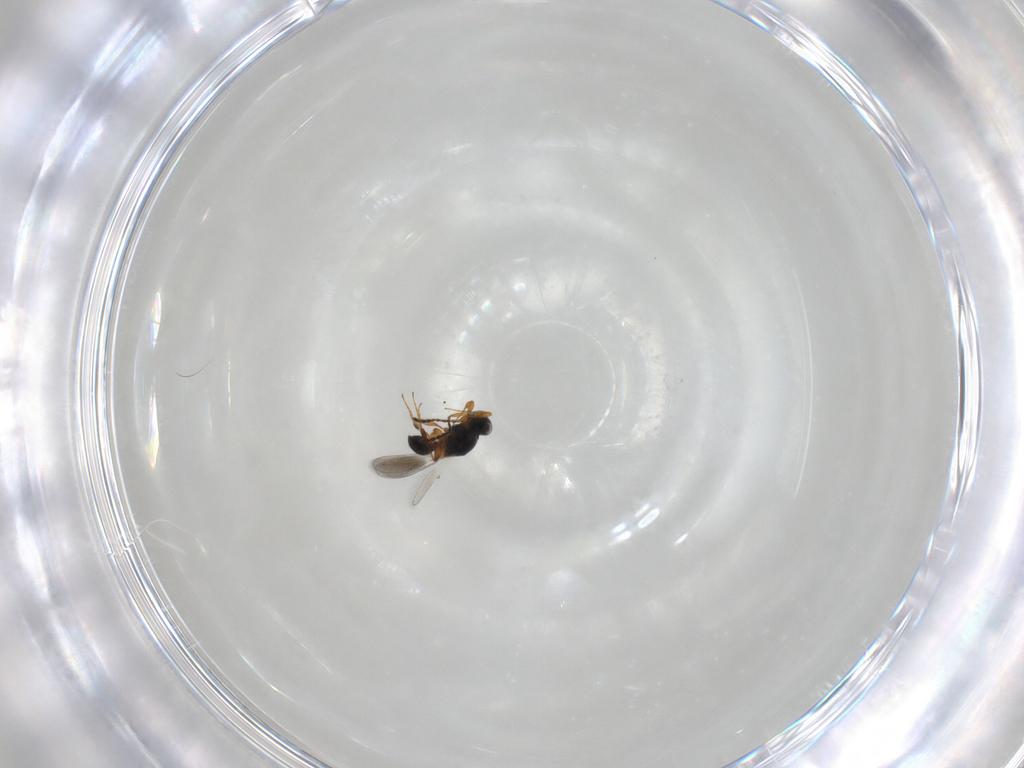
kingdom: Animalia
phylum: Arthropoda
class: Insecta
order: Hymenoptera
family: Platygastridae
